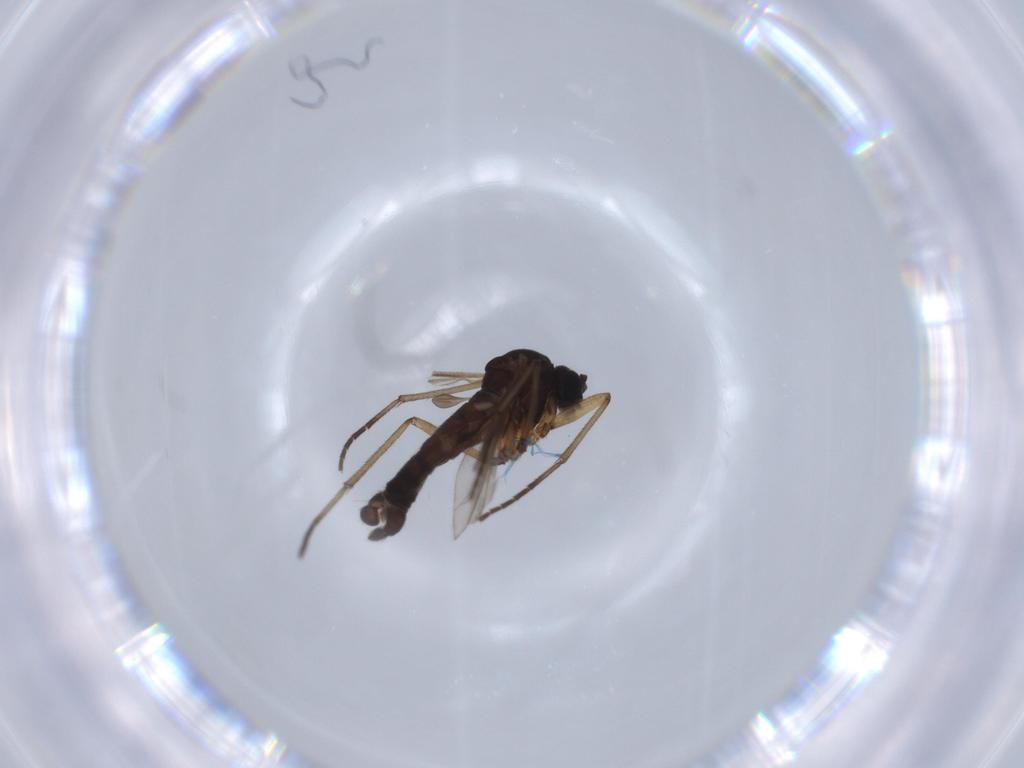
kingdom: Animalia
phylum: Arthropoda
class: Insecta
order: Diptera
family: Sciaridae
